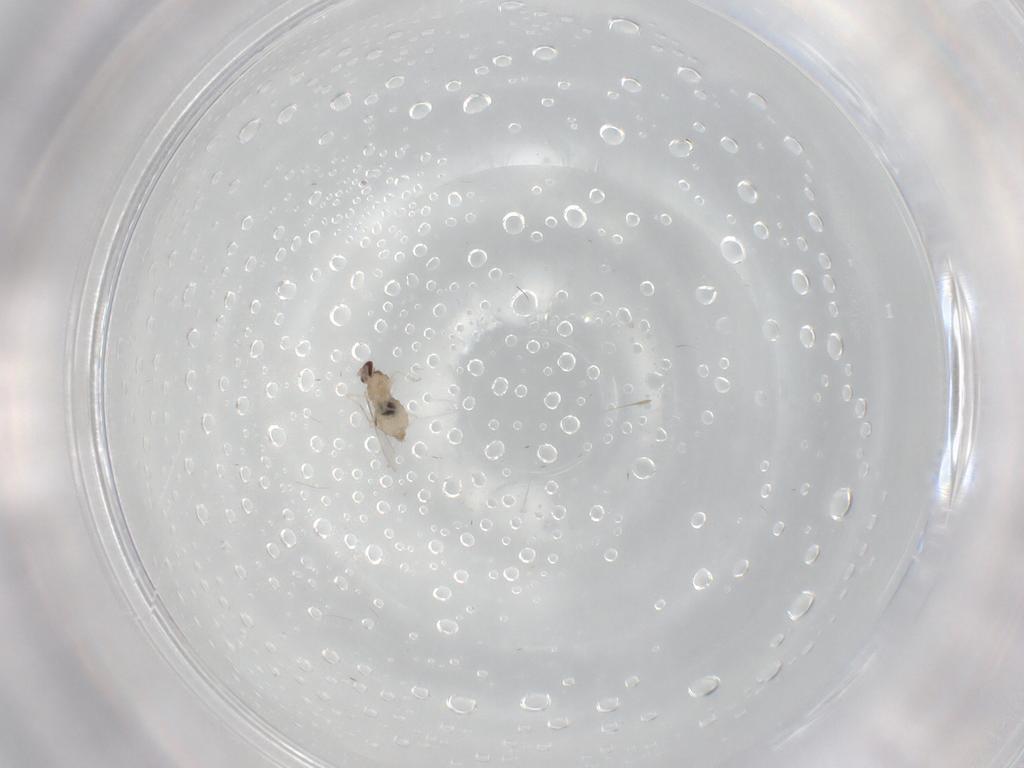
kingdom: Animalia
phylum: Arthropoda
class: Insecta
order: Diptera
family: Cecidomyiidae
